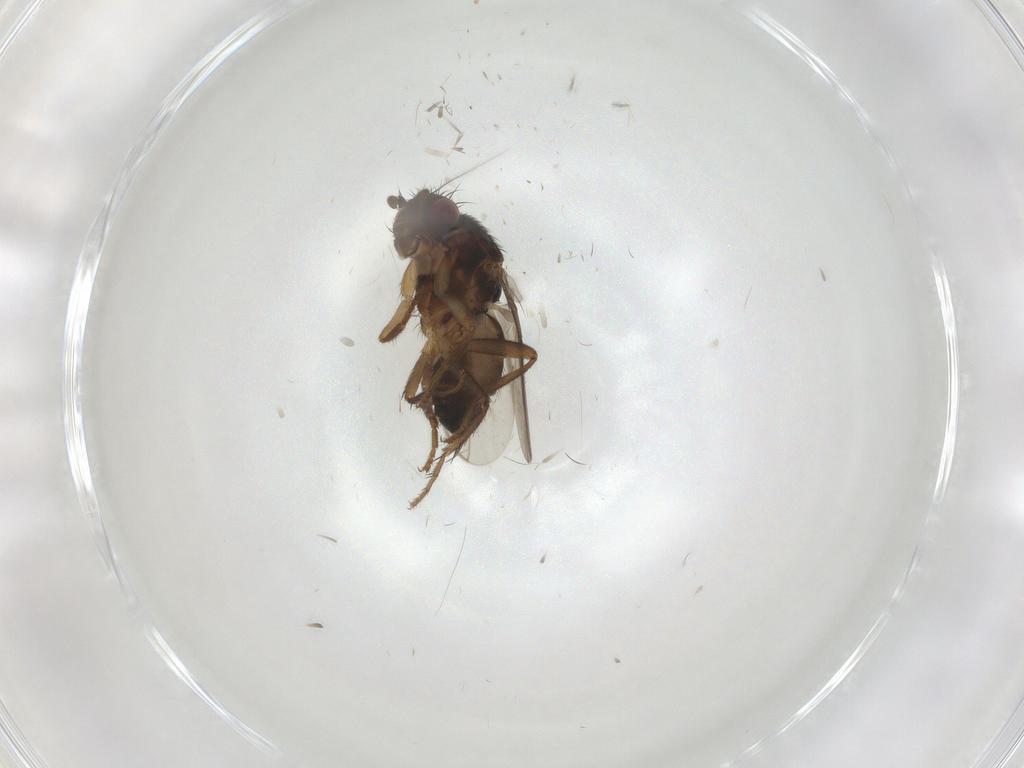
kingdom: Animalia
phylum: Arthropoda
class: Insecta
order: Diptera
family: Sphaeroceridae
